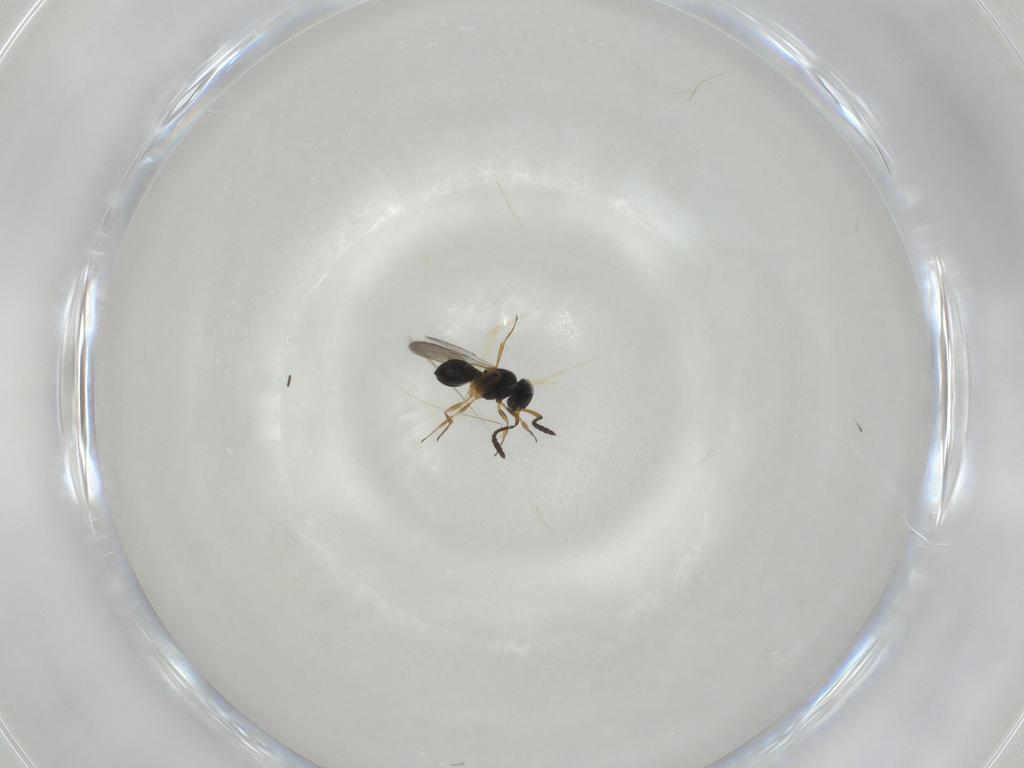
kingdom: Animalia
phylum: Arthropoda
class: Insecta
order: Hymenoptera
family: Scelionidae
